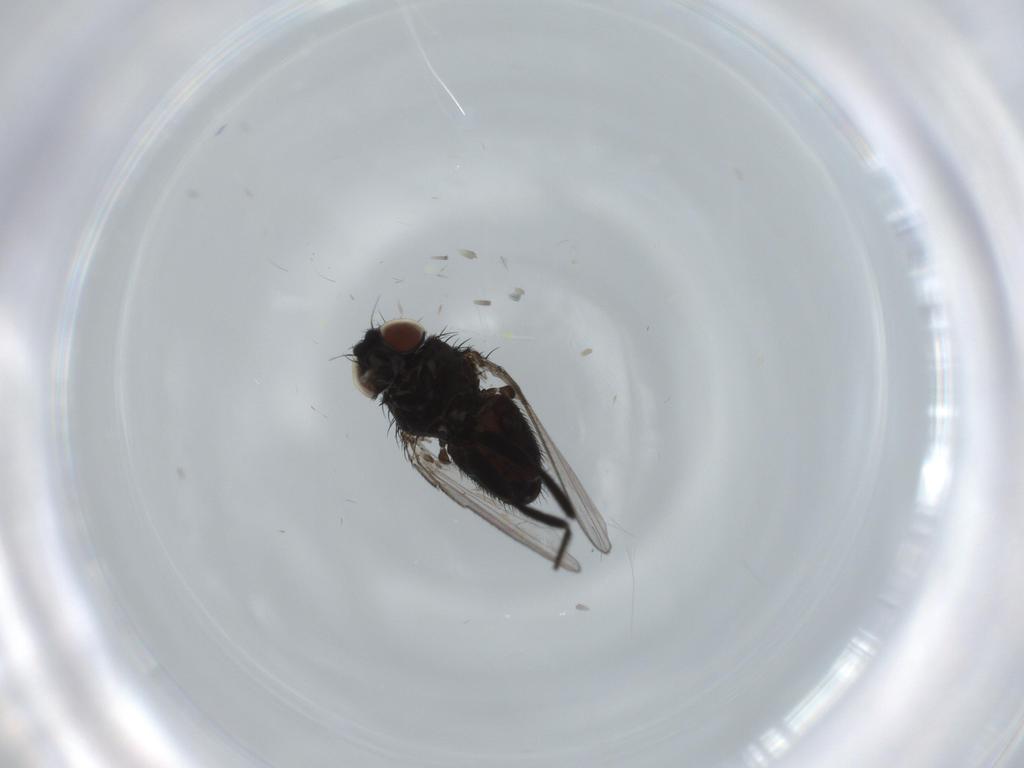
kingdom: Animalia
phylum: Arthropoda
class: Insecta
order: Diptera
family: Milichiidae
